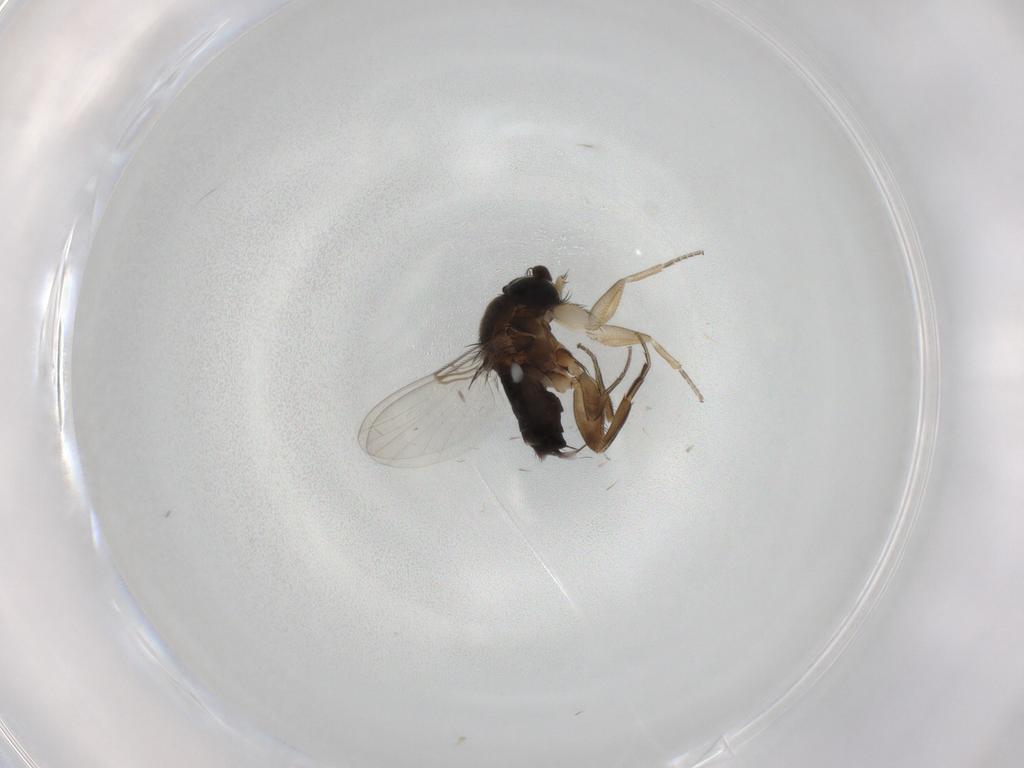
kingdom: Animalia
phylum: Arthropoda
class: Insecta
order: Diptera
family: Phoridae
